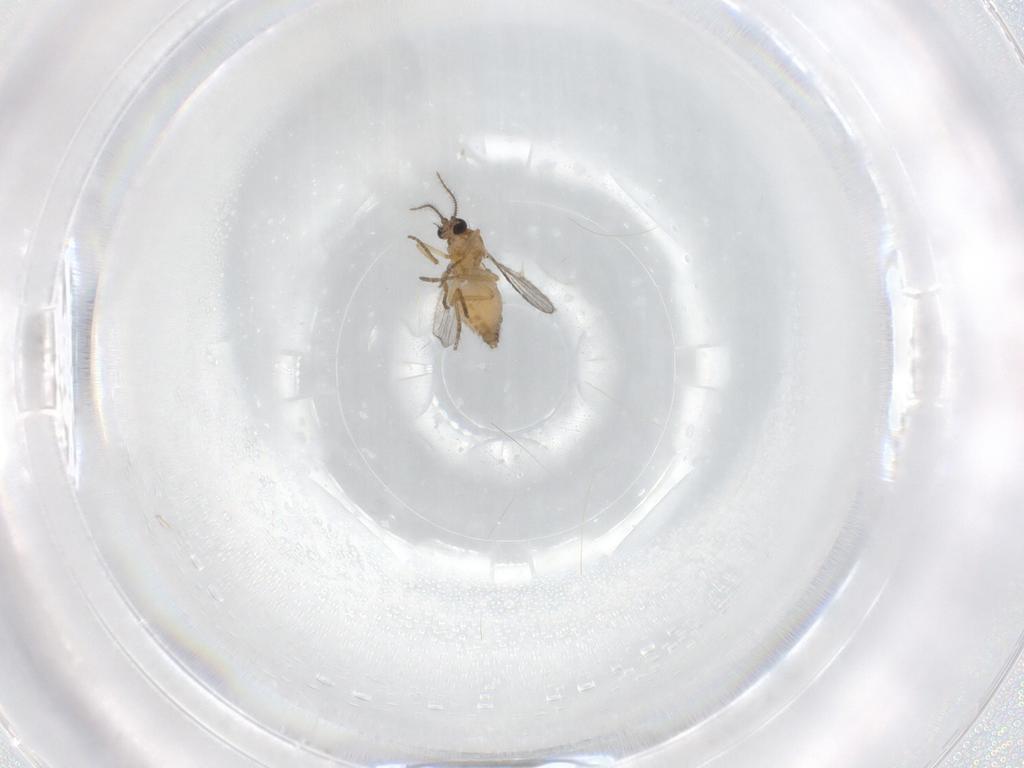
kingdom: Animalia
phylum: Arthropoda
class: Insecta
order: Diptera
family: Ceratopogonidae
